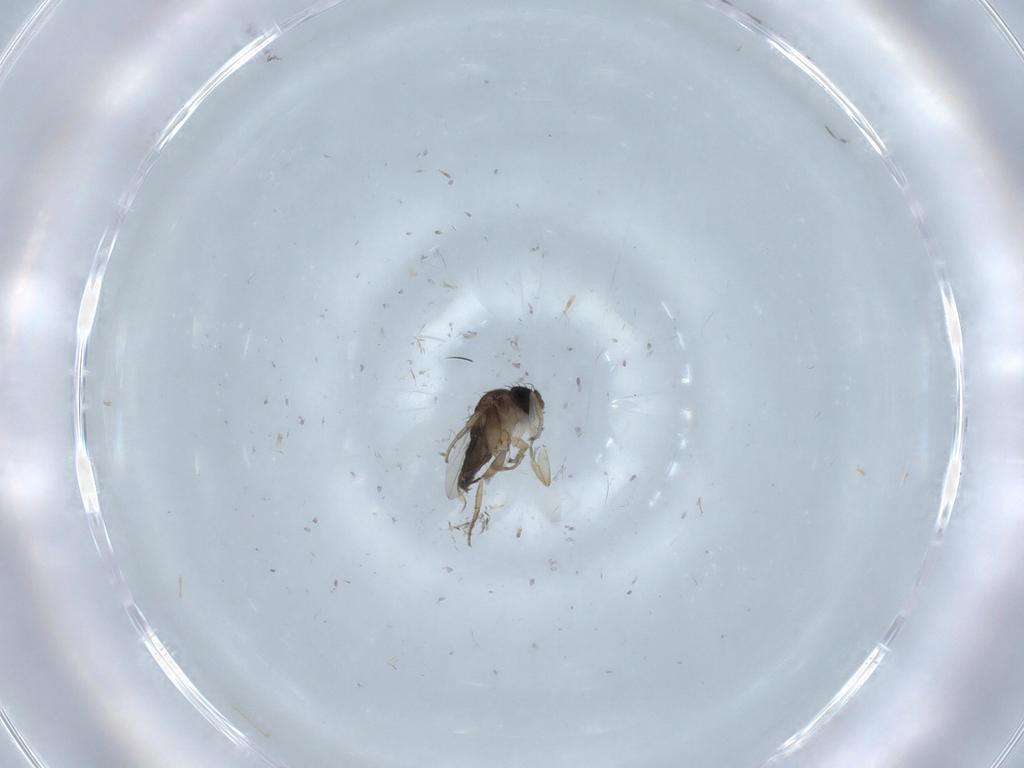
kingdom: Animalia
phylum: Arthropoda
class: Insecta
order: Diptera
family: Phoridae
